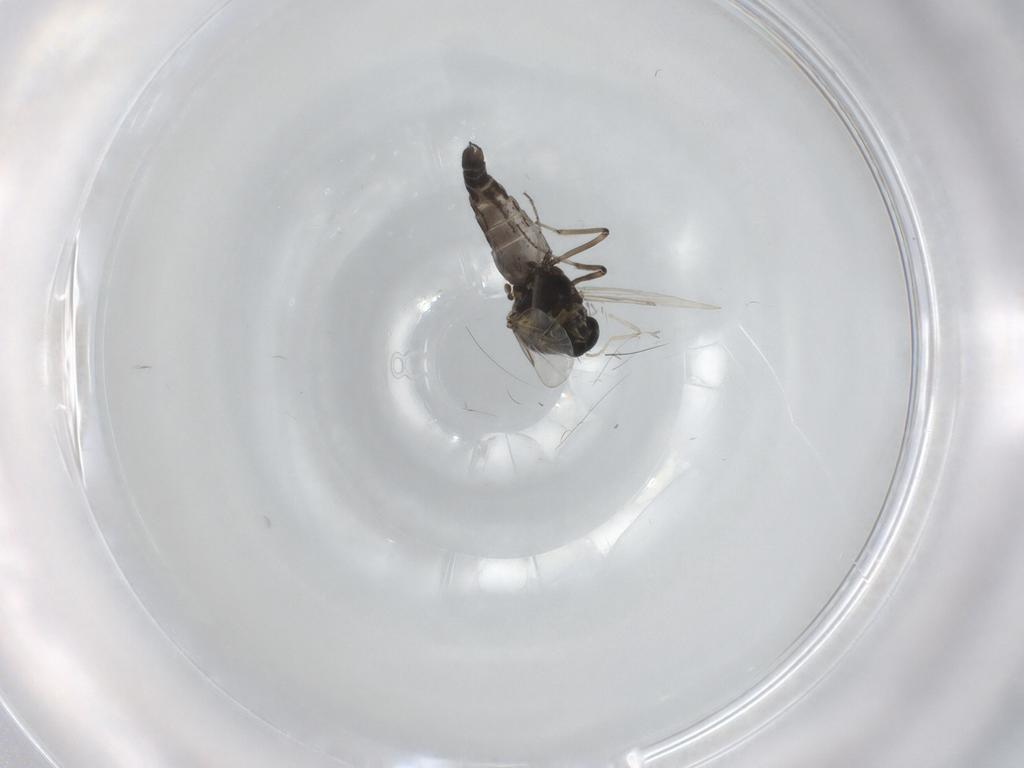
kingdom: Animalia
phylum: Arthropoda
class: Insecta
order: Diptera
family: Cecidomyiidae
